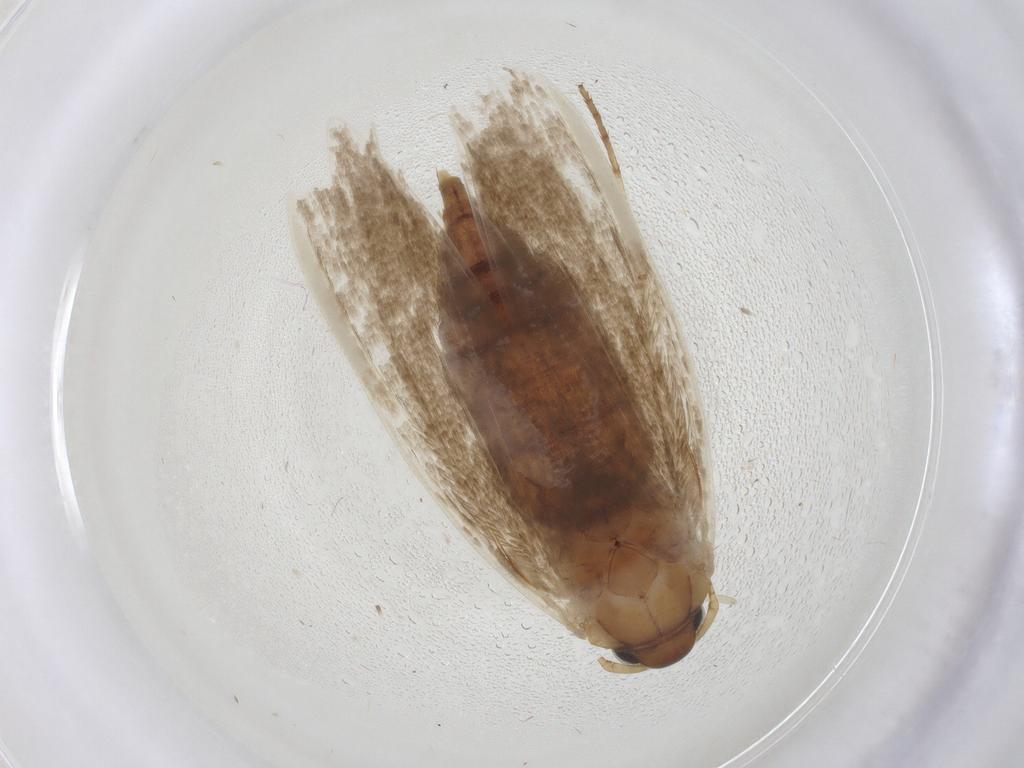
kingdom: Animalia
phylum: Arthropoda
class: Insecta
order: Lepidoptera
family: Blastobasidae
